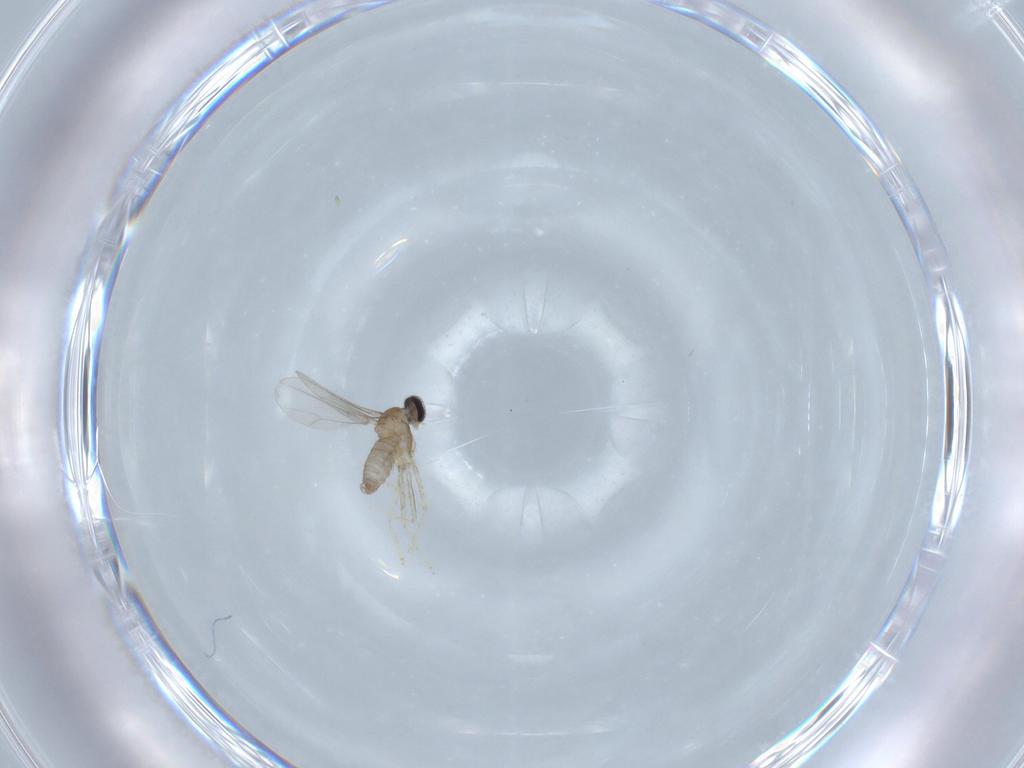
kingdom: Animalia
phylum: Arthropoda
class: Insecta
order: Diptera
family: Cecidomyiidae
